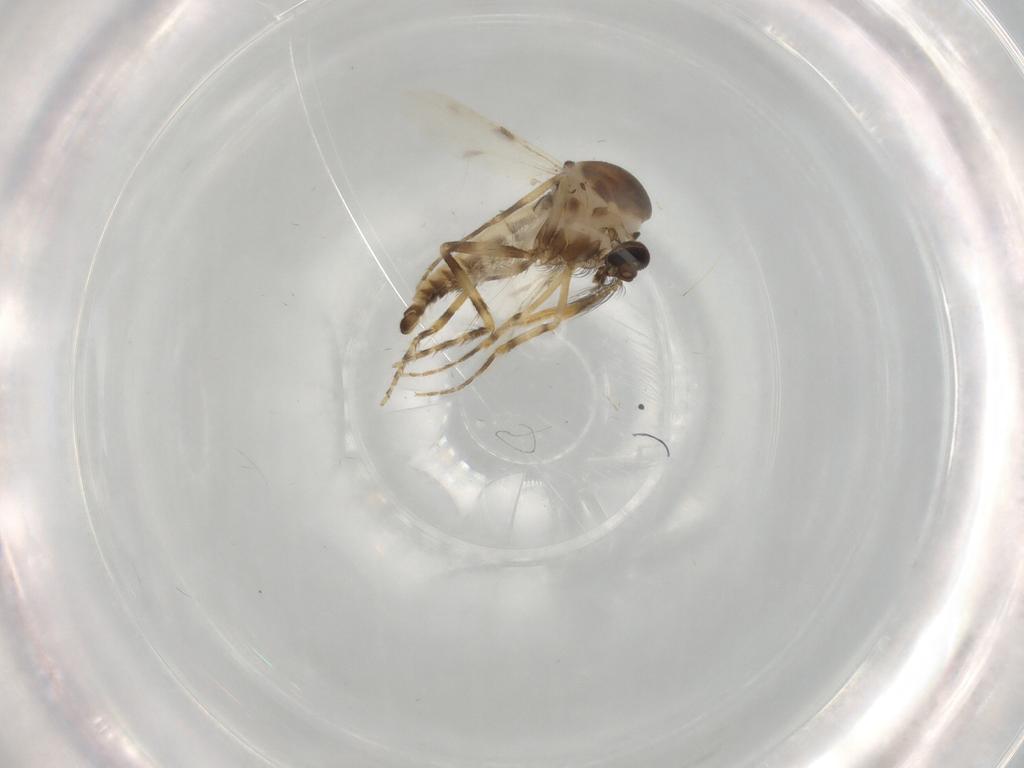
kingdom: Animalia
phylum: Arthropoda
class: Insecta
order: Diptera
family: Ceratopogonidae
